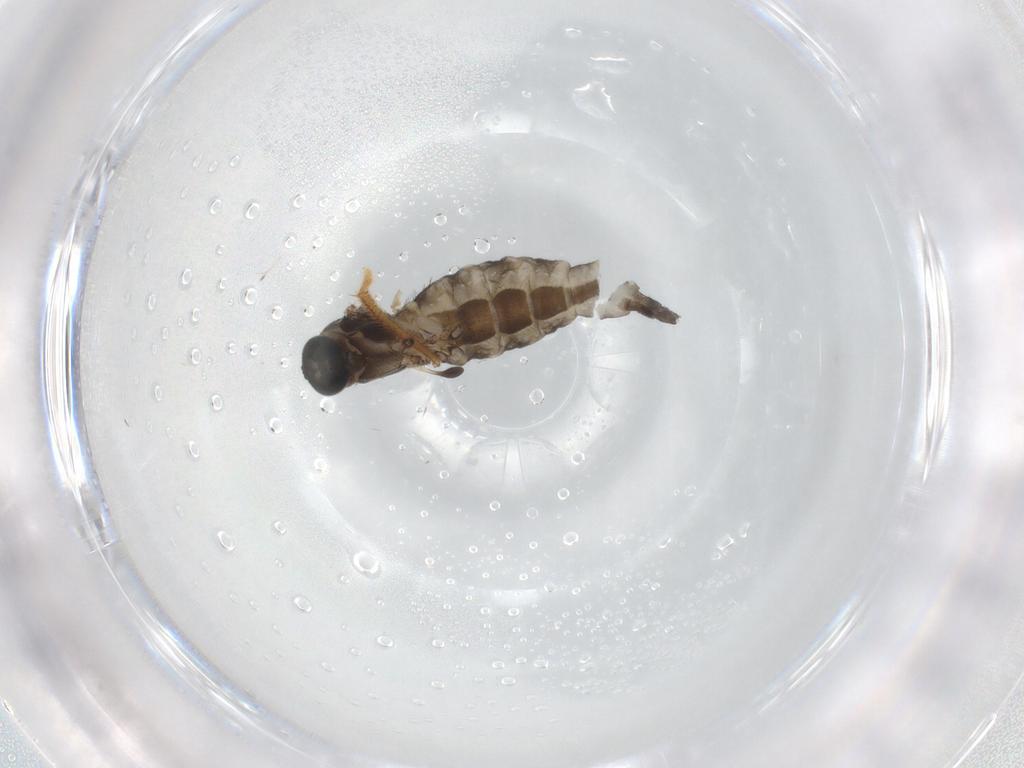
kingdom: Animalia
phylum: Arthropoda
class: Insecta
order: Diptera
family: Sciaridae
